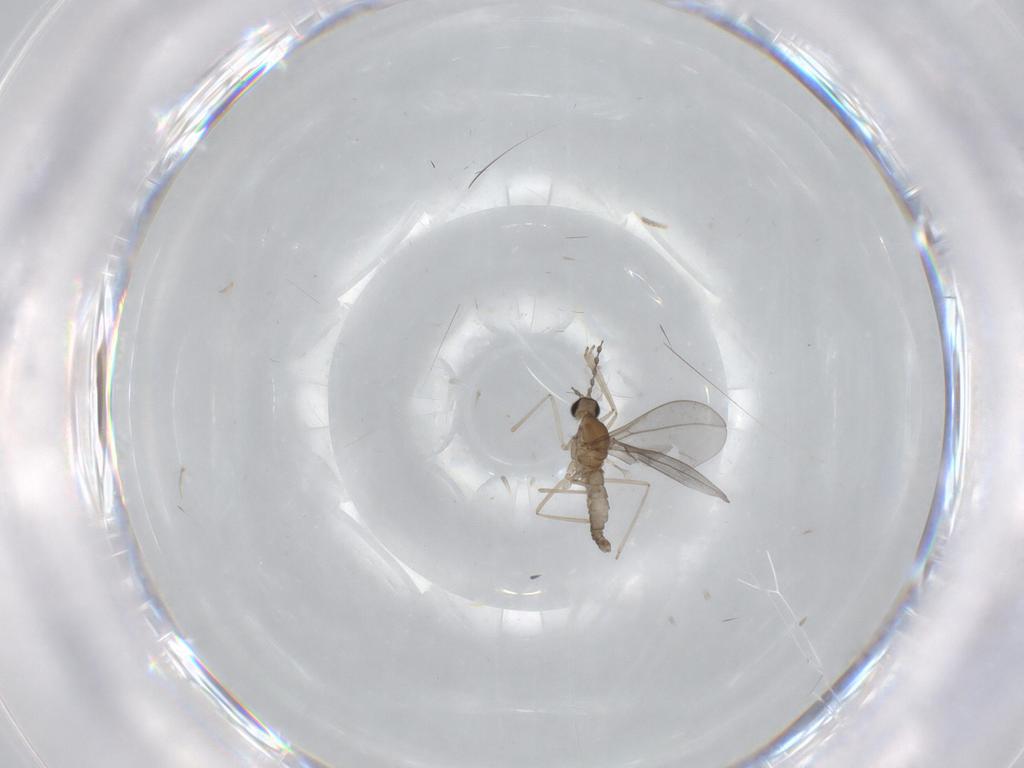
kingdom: Animalia
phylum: Arthropoda
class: Insecta
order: Diptera
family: Cecidomyiidae
